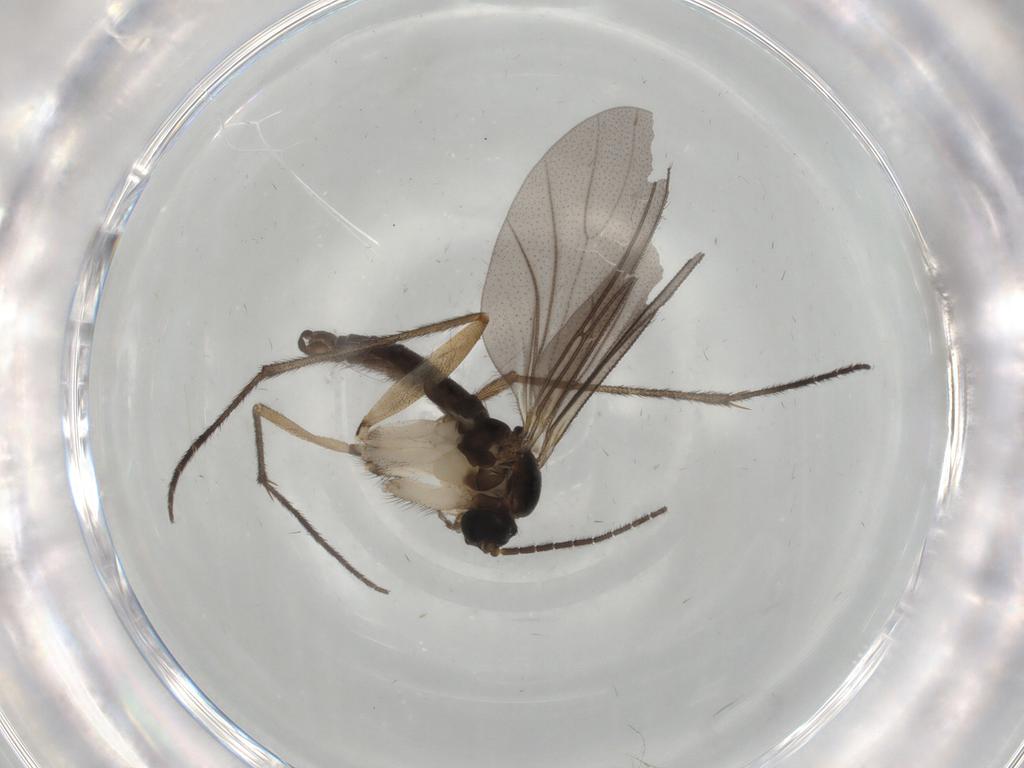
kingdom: Animalia
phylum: Arthropoda
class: Insecta
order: Diptera
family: Sciaridae
